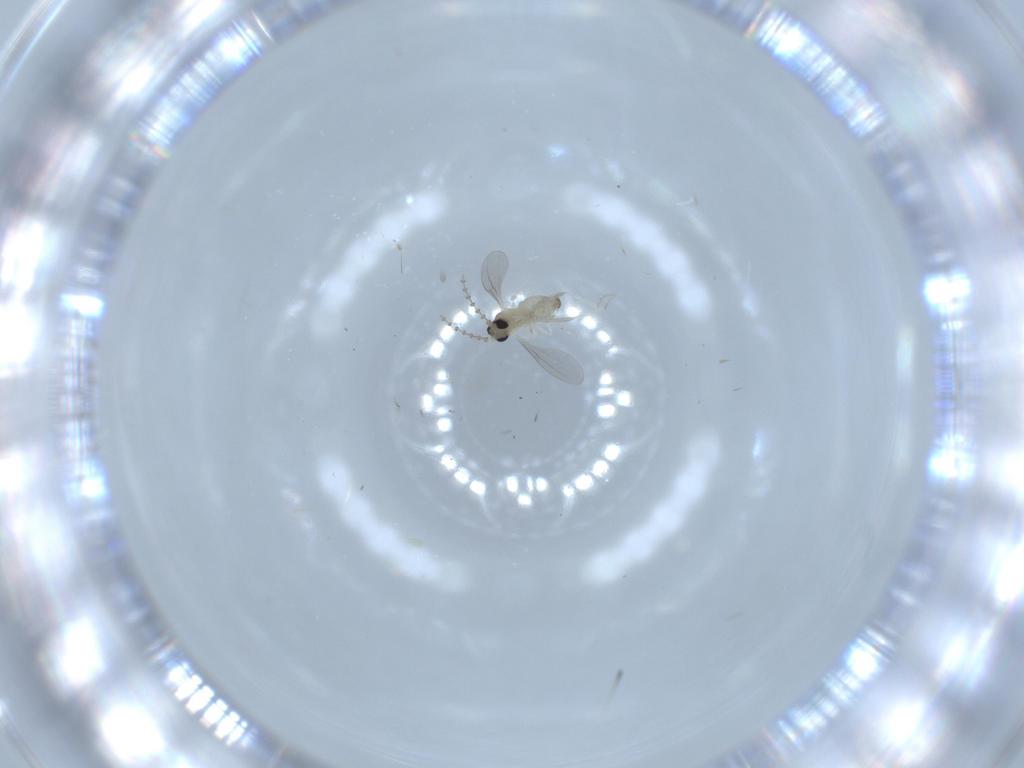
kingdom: Animalia
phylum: Arthropoda
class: Insecta
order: Diptera
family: Cecidomyiidae
